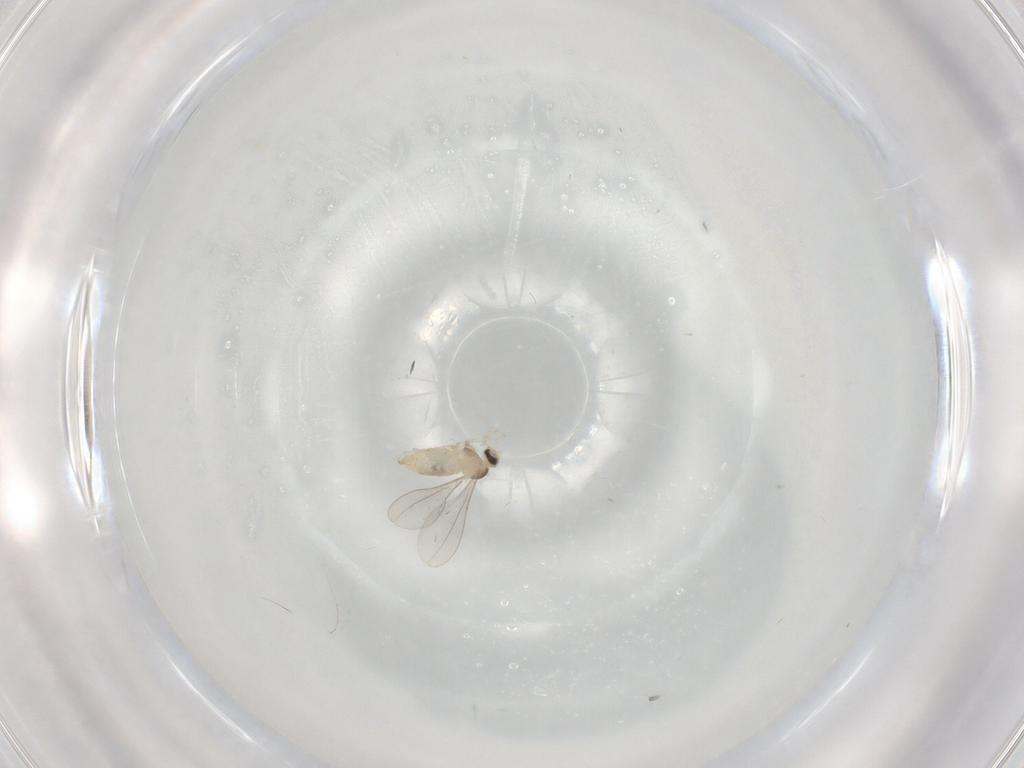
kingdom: Animalia
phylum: Arthropoda
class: Insecta
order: Diptera
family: Cecidomyiidae
